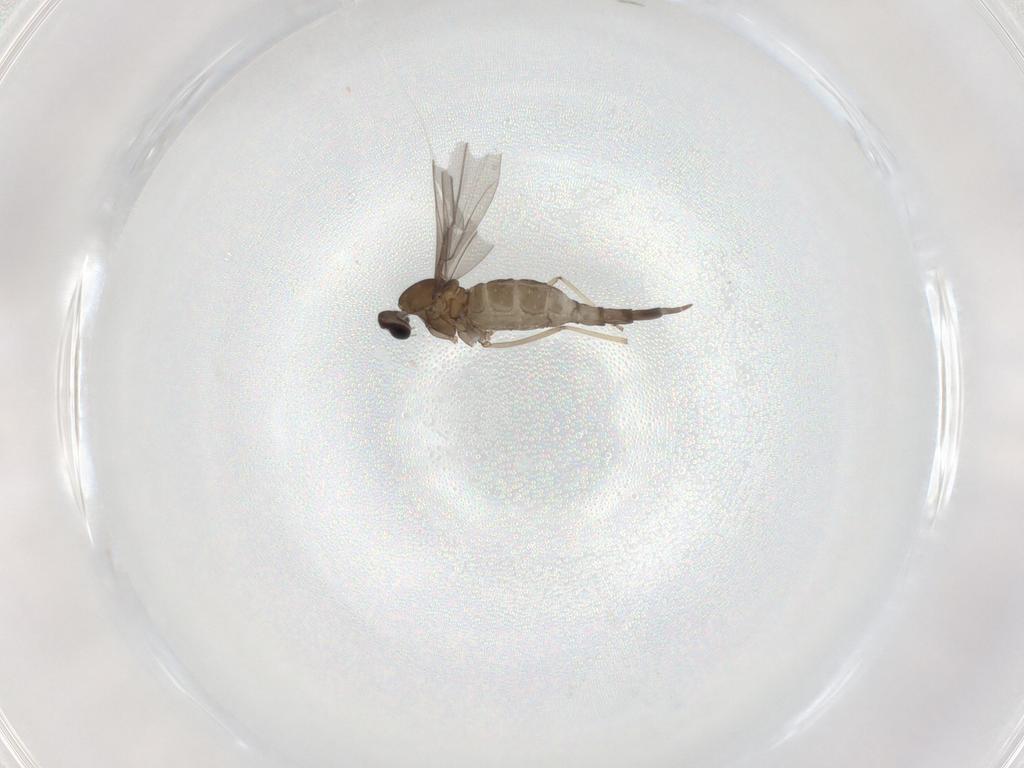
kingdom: Animalia
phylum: Arthropoda
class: Insecta
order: Diptera
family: Cecidomyiidae
